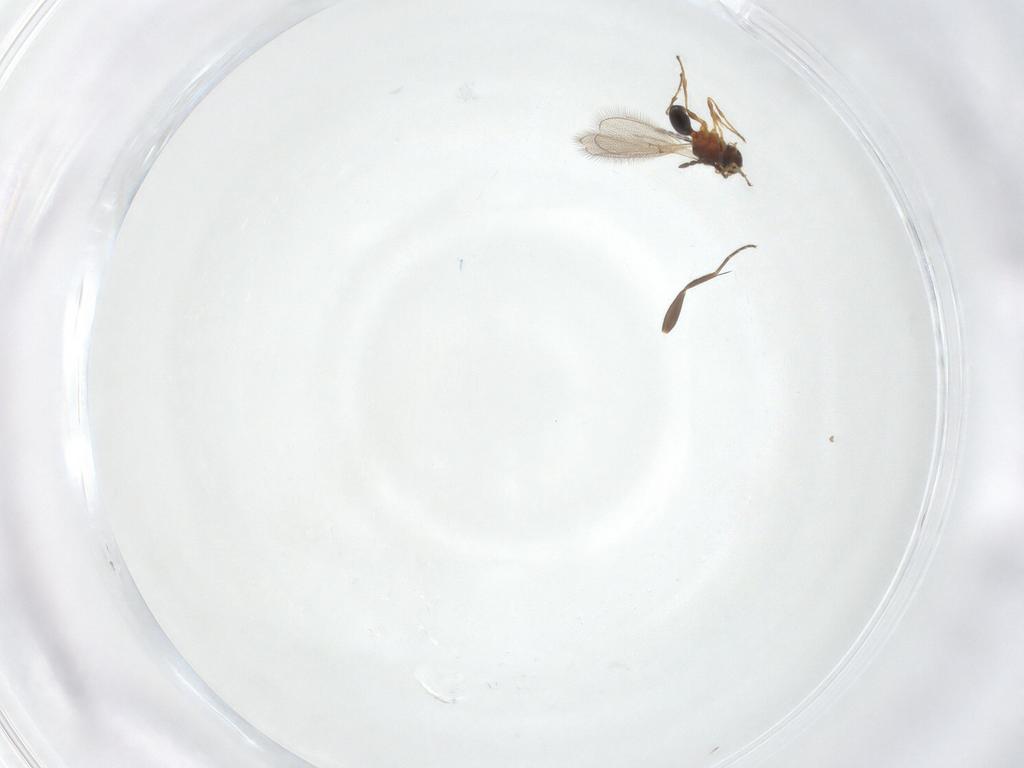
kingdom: Animalia
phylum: Arthropoda
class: Insecta
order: Hymenoptera
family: Diapriidae
